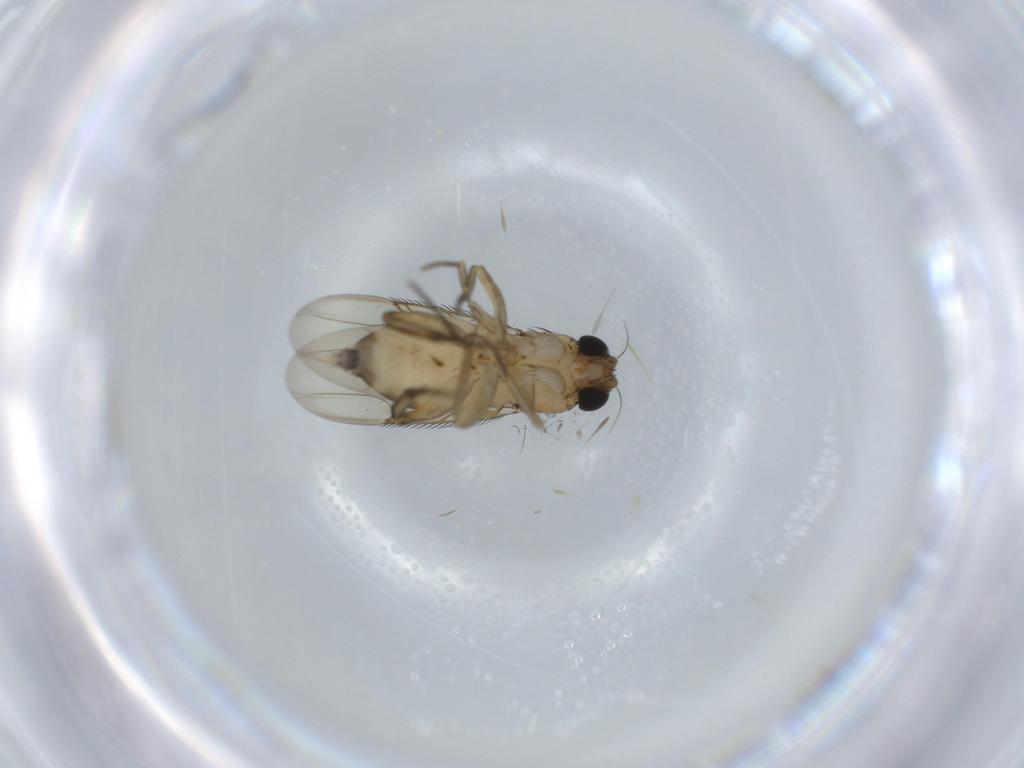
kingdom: Animalia
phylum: Arthropoda
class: Insecta
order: Diptera
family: Phoridae
